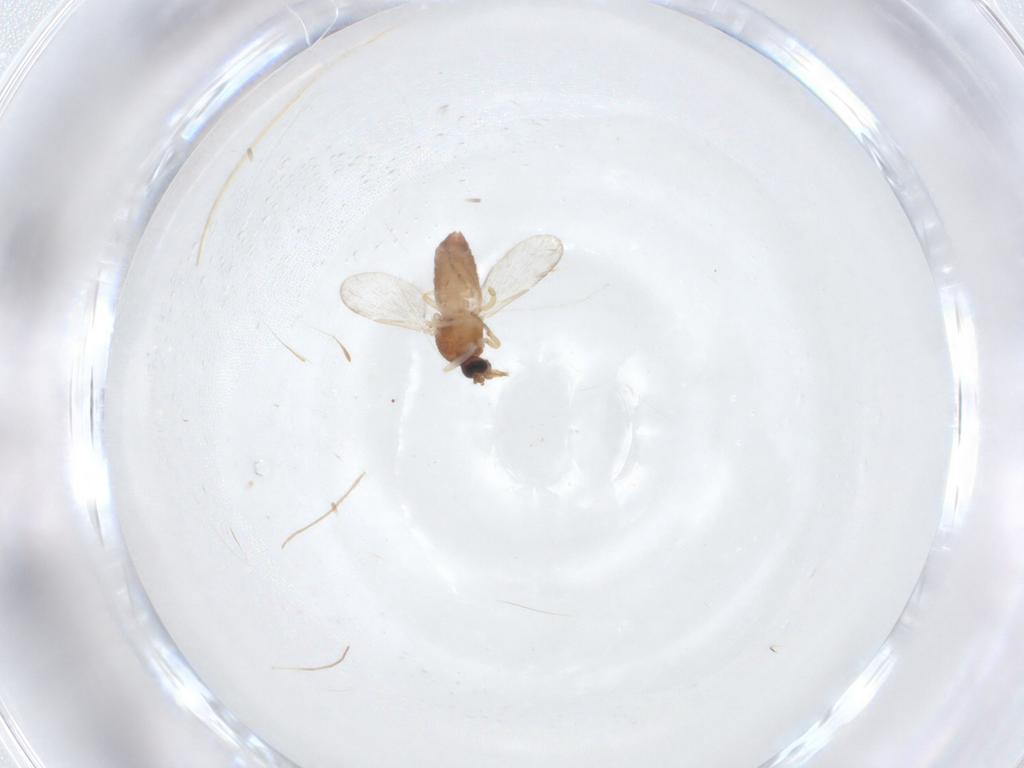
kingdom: Animalia
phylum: Arthropoda
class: Insecta
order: Diptera
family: Ceratopogonidae
